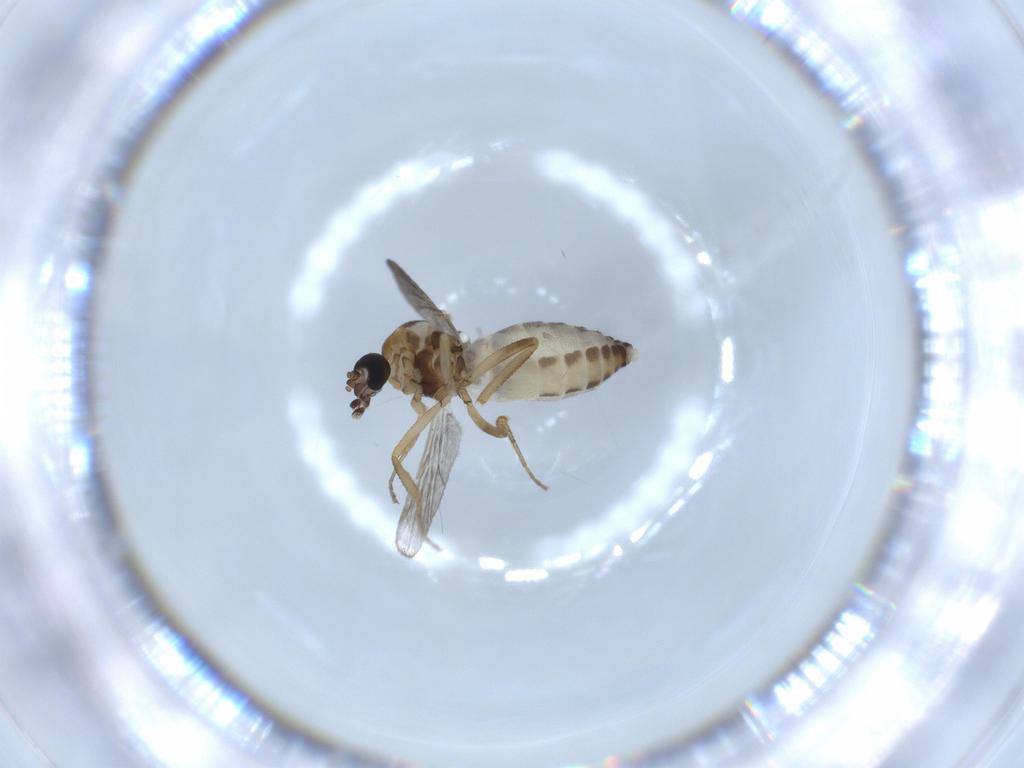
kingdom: Animalia
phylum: Arthropoda
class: Insecta
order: Diptera
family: Ceratopogonidae
